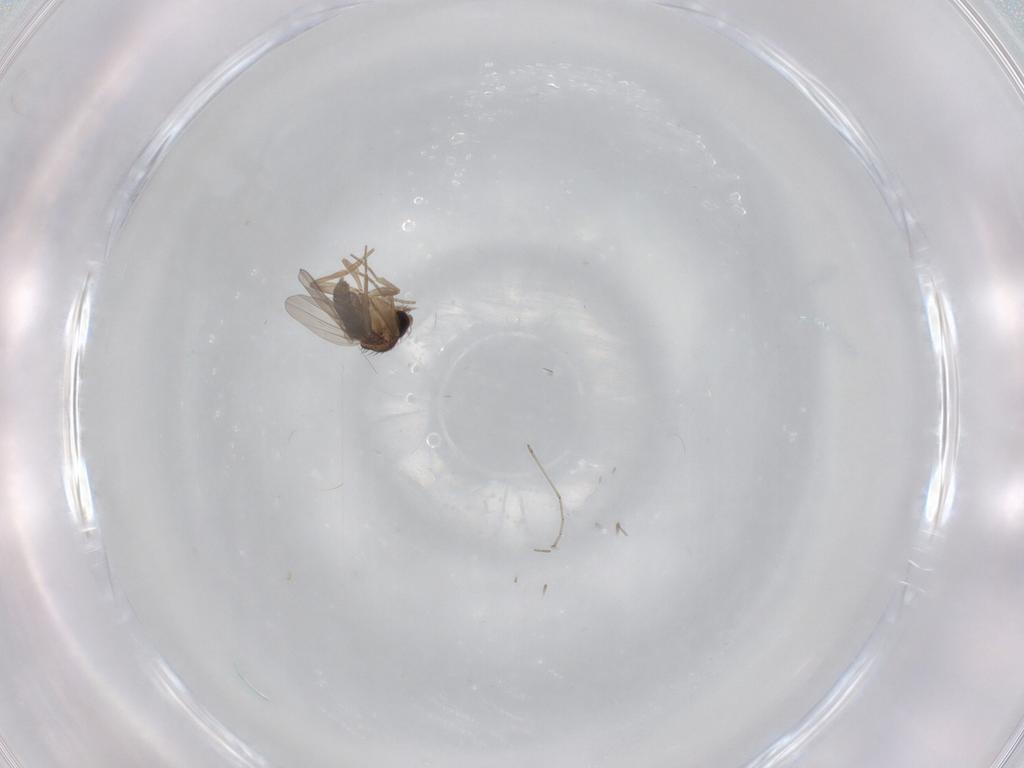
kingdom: Animalia
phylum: Arthropoda
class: Insecta
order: Diptera
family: Cecidomyiidae
